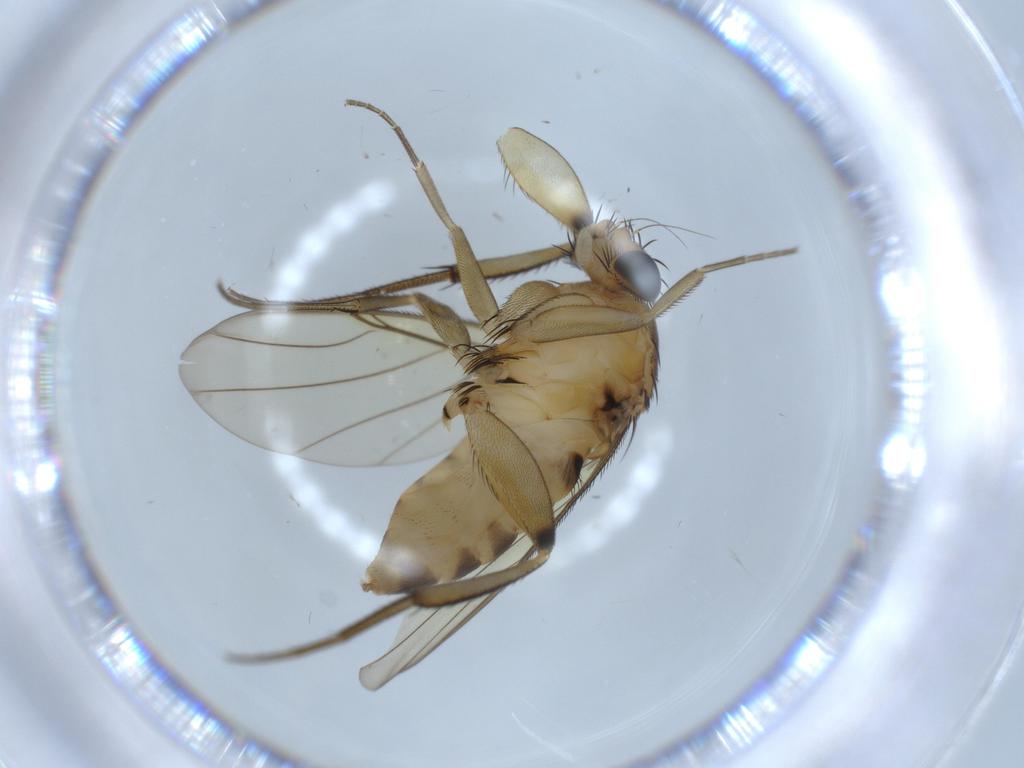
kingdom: Animalia
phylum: Arthropoda
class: Insecta
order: Diptera
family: Phoridae
